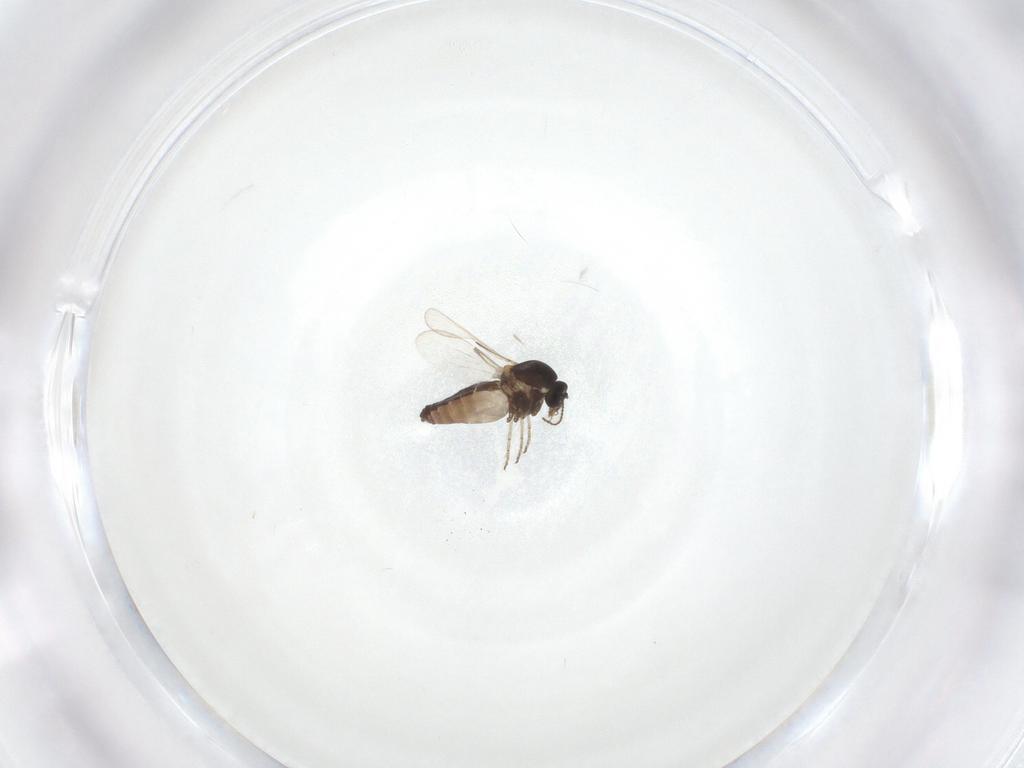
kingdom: Animalia
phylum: Arthropoda
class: Insecta
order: Diptera
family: Ceratopogonidae
